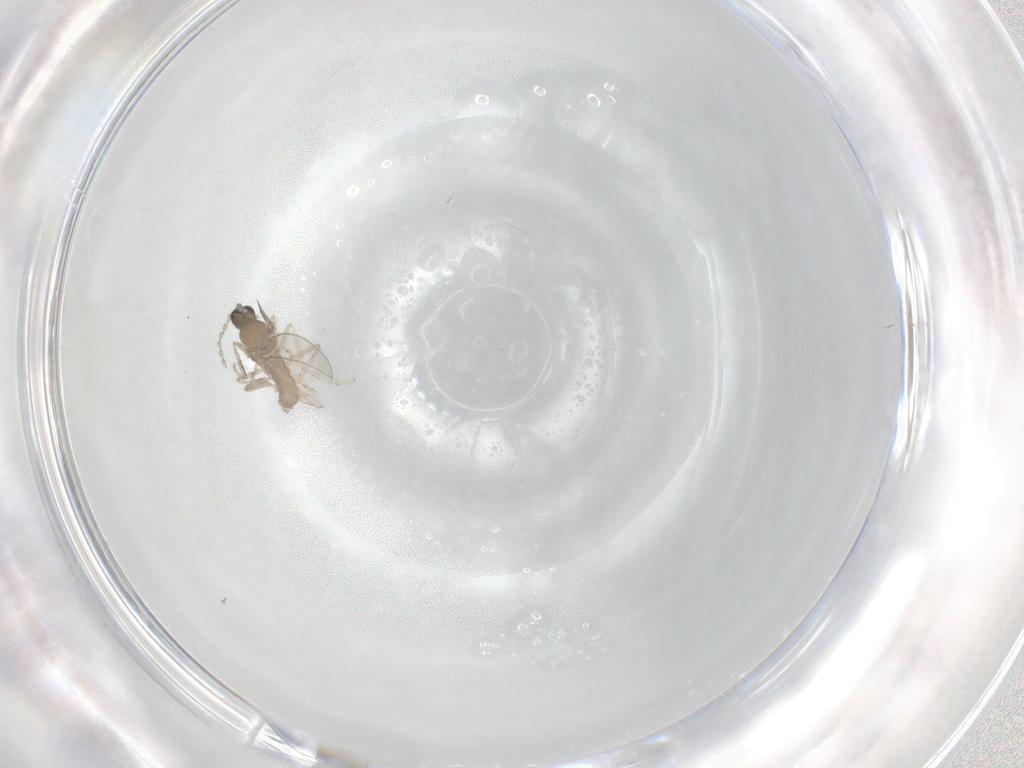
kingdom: Animalia
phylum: Arthropoda
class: Insecta
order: Diptera
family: Cecidomyiidae
